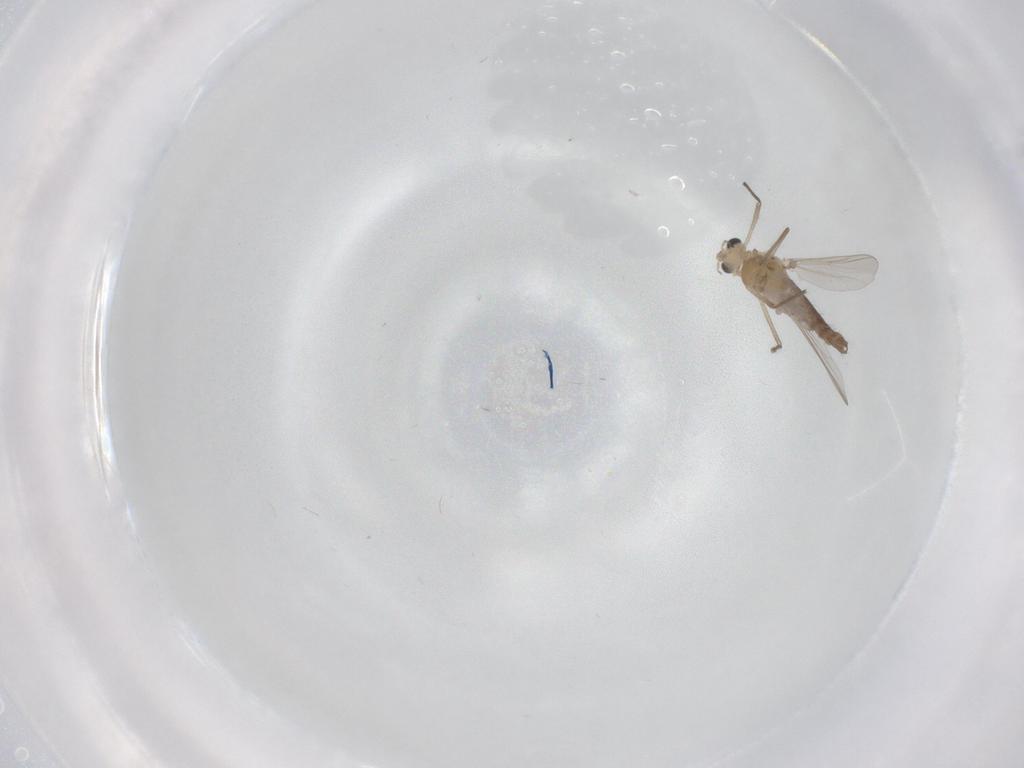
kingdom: Animalia
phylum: Arthropoda
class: Insecta
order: Diptera
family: Chironomidae
